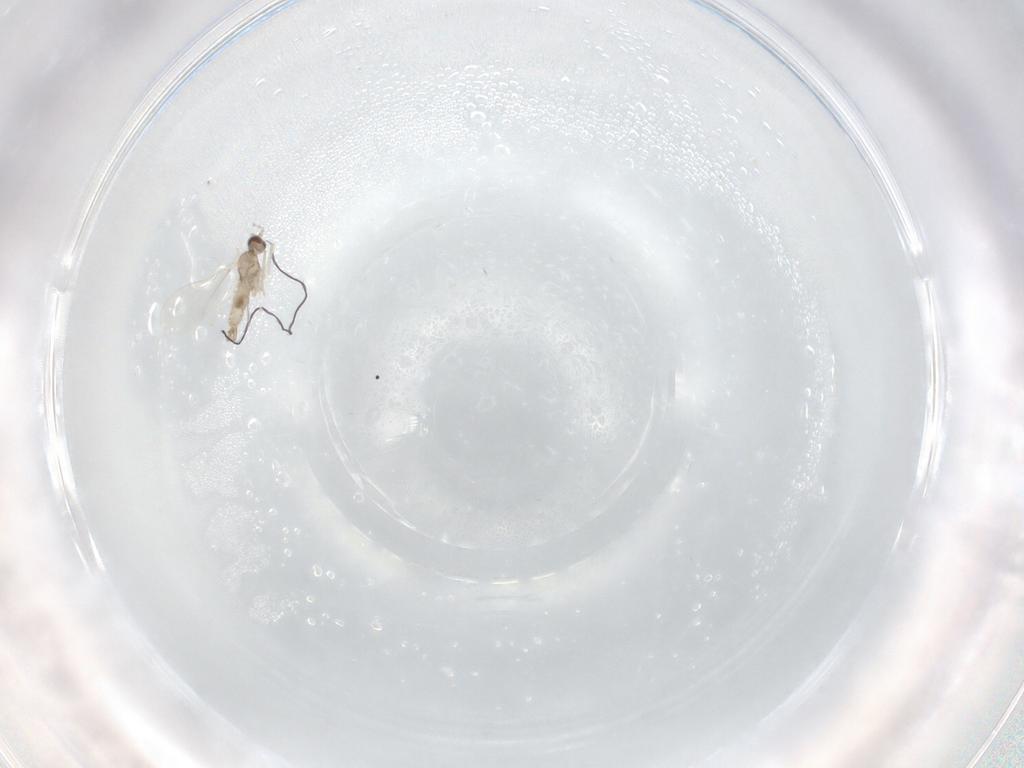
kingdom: Animalia
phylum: Arthropoda
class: Insecta
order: Diptera
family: Cecidomyiidae
